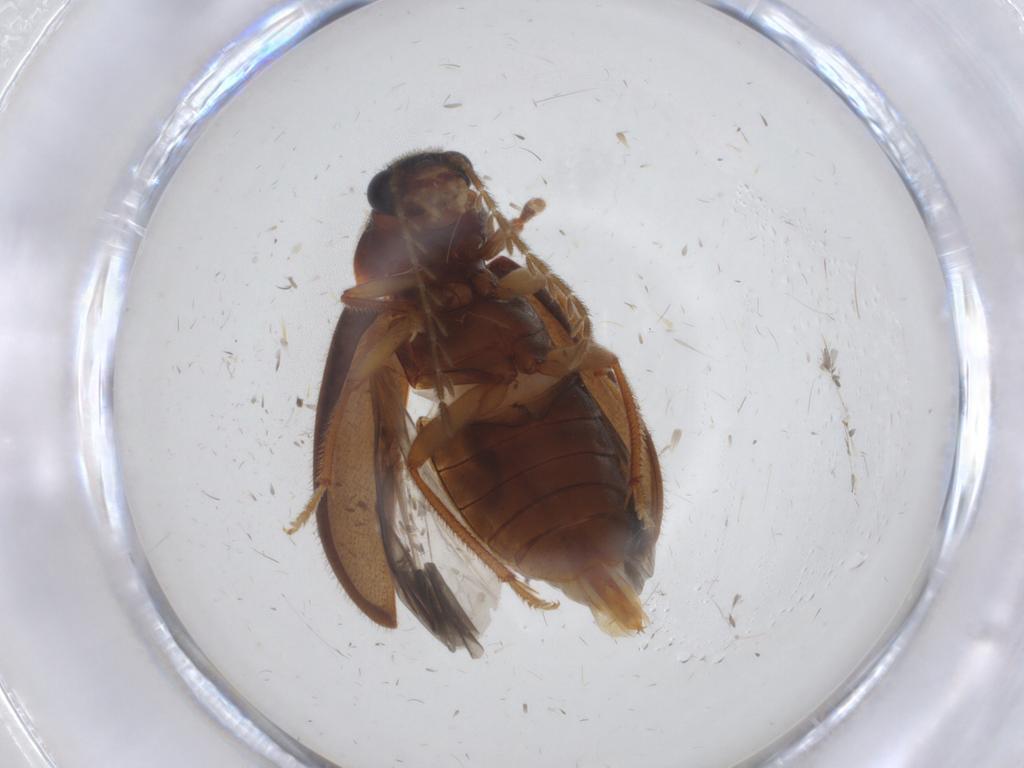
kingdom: Animalia
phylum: Arthropoda
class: Insecta
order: Coleoptera
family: Ptilodactylidae
